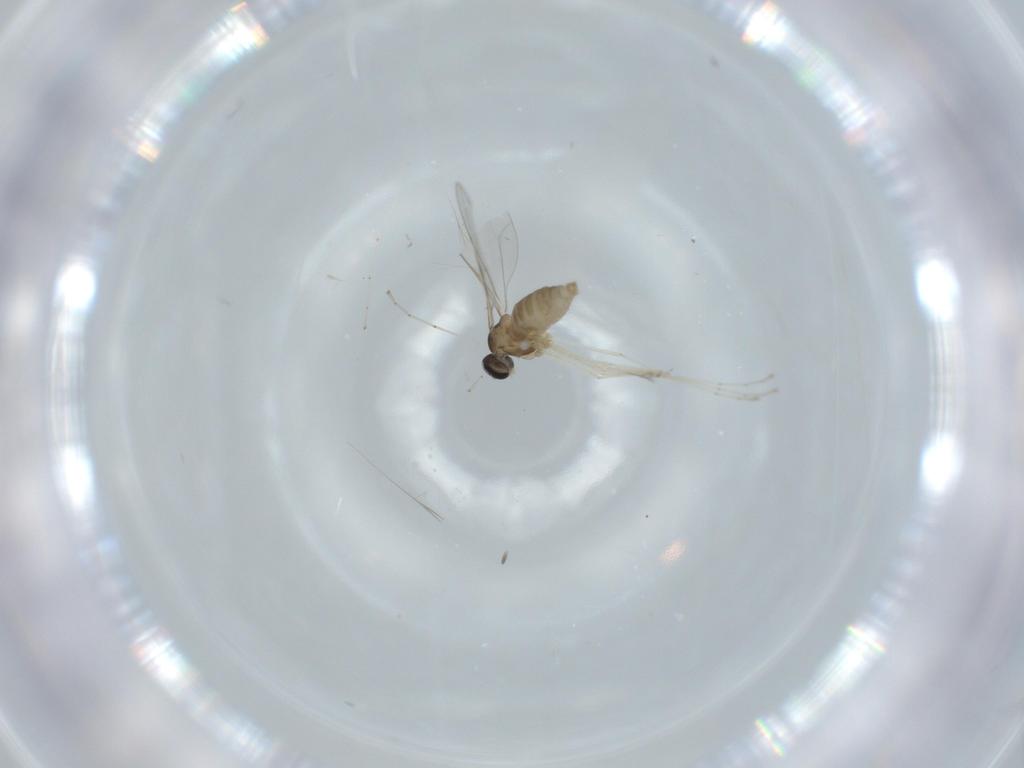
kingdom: Animalia
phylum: Arthropoda
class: Insecta
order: Diptera
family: Cecidomyiidae
